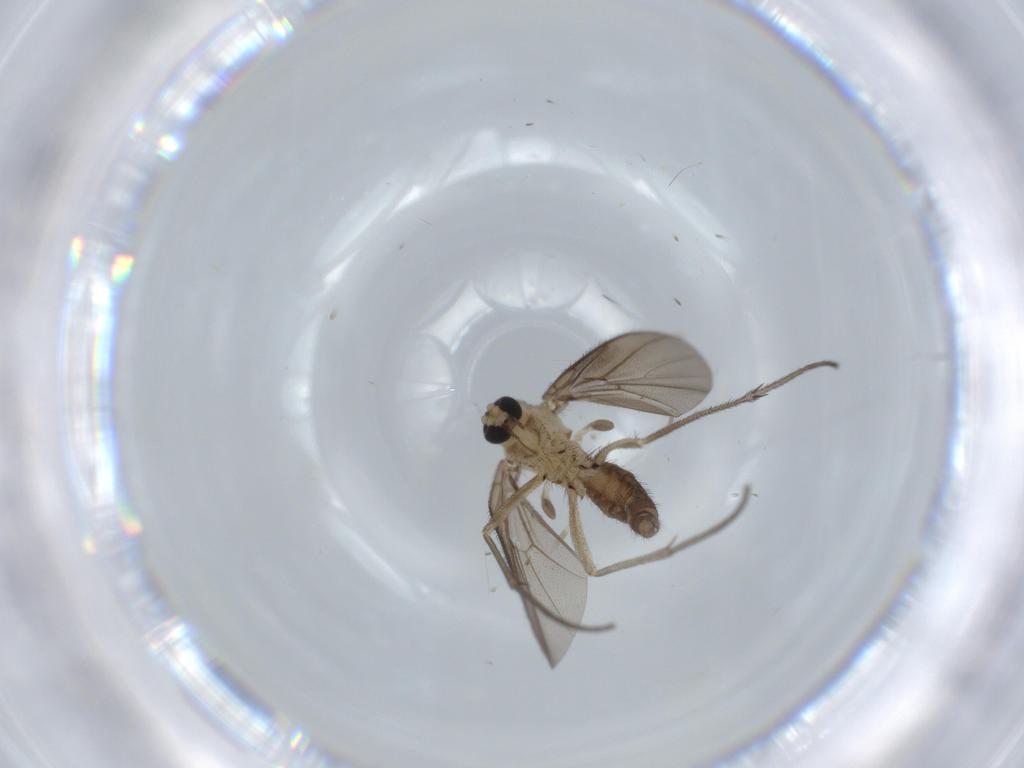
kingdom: Animalia
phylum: Arthropoda
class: Insecta
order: Diptera
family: Diadocidiidae
